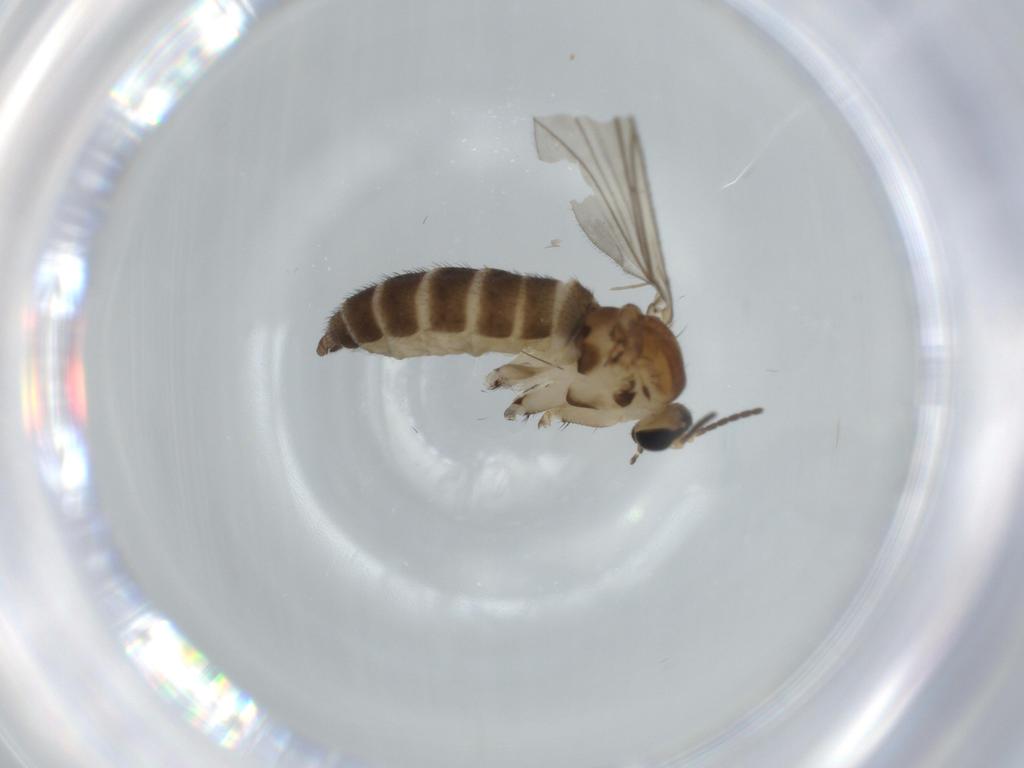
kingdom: Animalia
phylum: Arthropoda
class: Insecta
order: Diptera
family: Sciaridae
